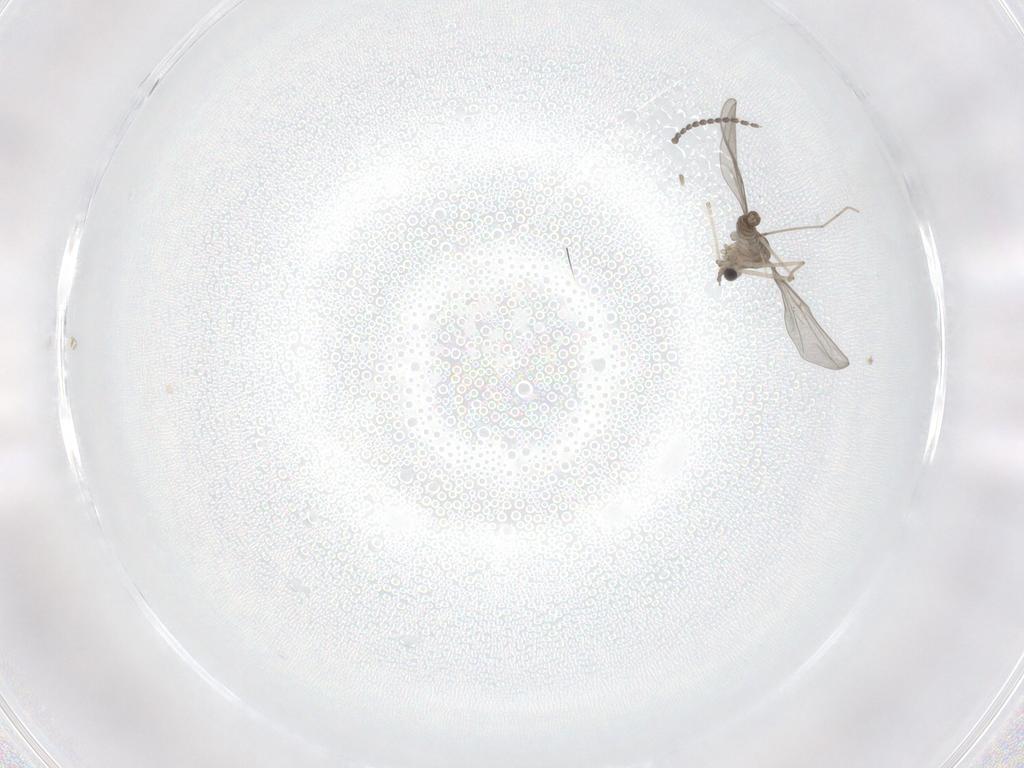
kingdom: Animalia
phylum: Arthropoda
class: Insecta
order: Diptera
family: Cecidomyiidae
